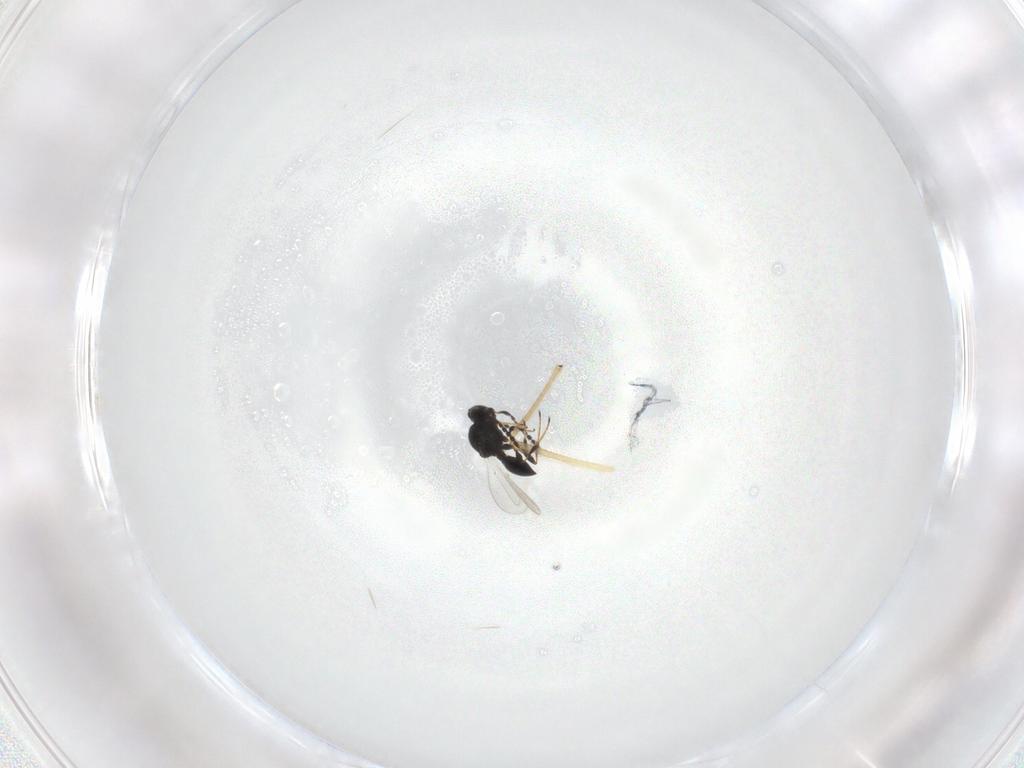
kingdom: Animalia
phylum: Arthropoda
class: Insecta
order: Hymenoptera
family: Platygastridae
